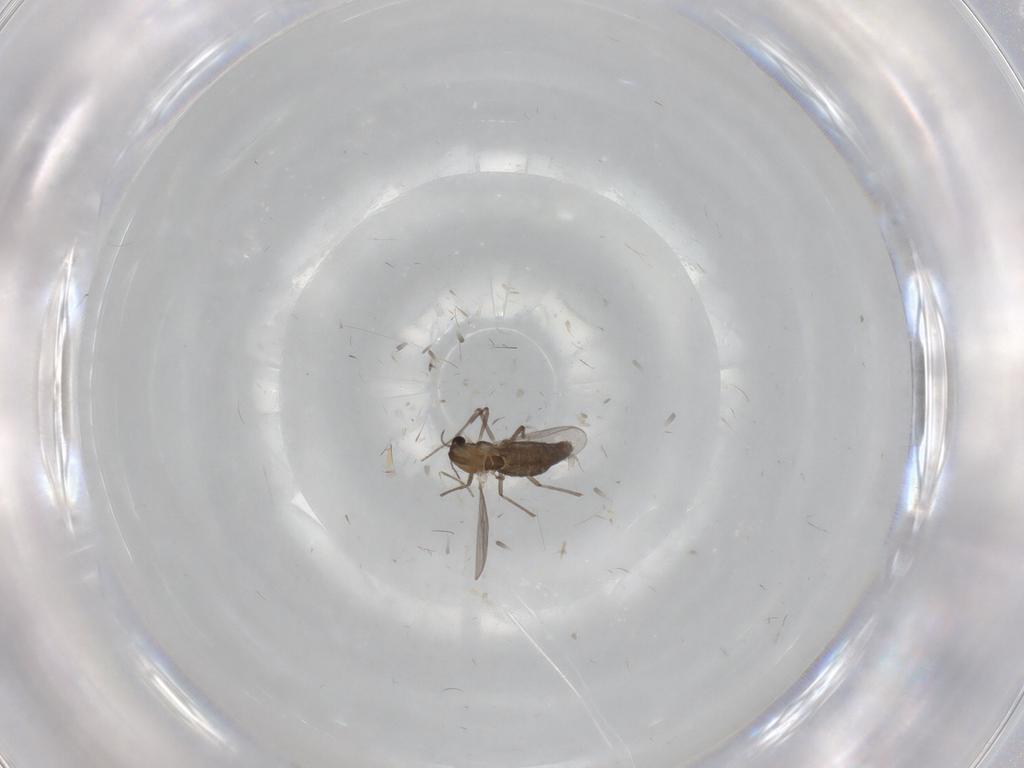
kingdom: Animalia
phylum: Arthropoda
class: Insecta
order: Diptera
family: Chironomidae
